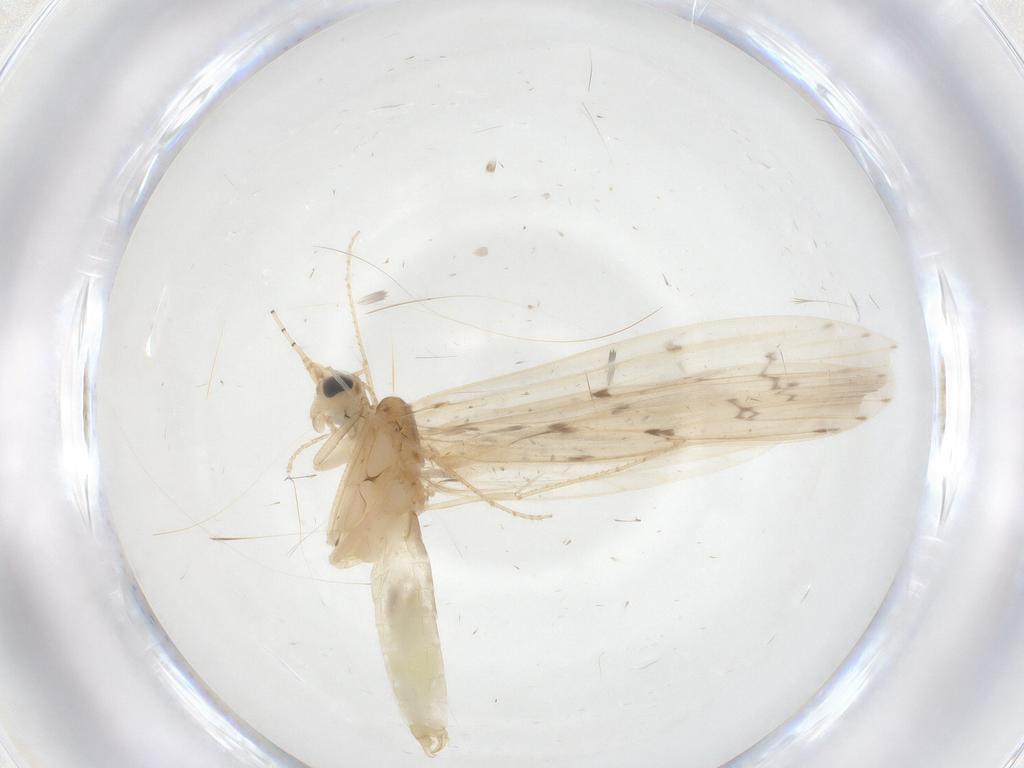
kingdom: Animalia
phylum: Arthropoda
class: Insecta
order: Trichoptera
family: Leptoceridae
